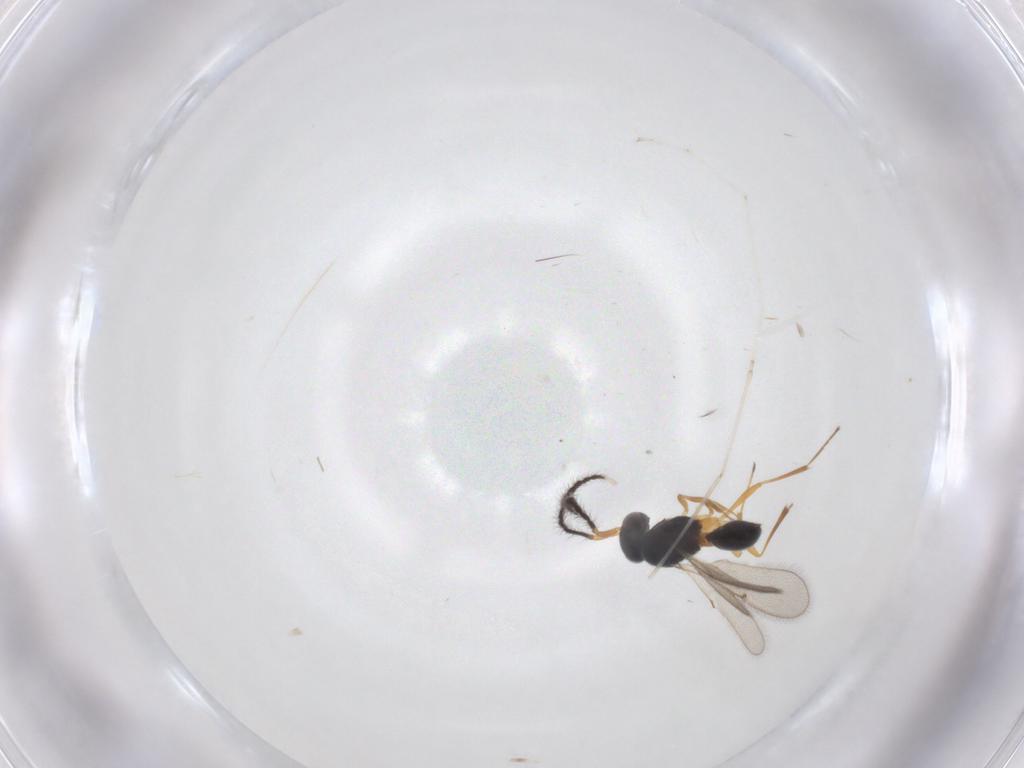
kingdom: Animalia
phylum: Arthropoda
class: Insecta
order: Hymenoptera
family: Scelionidae
